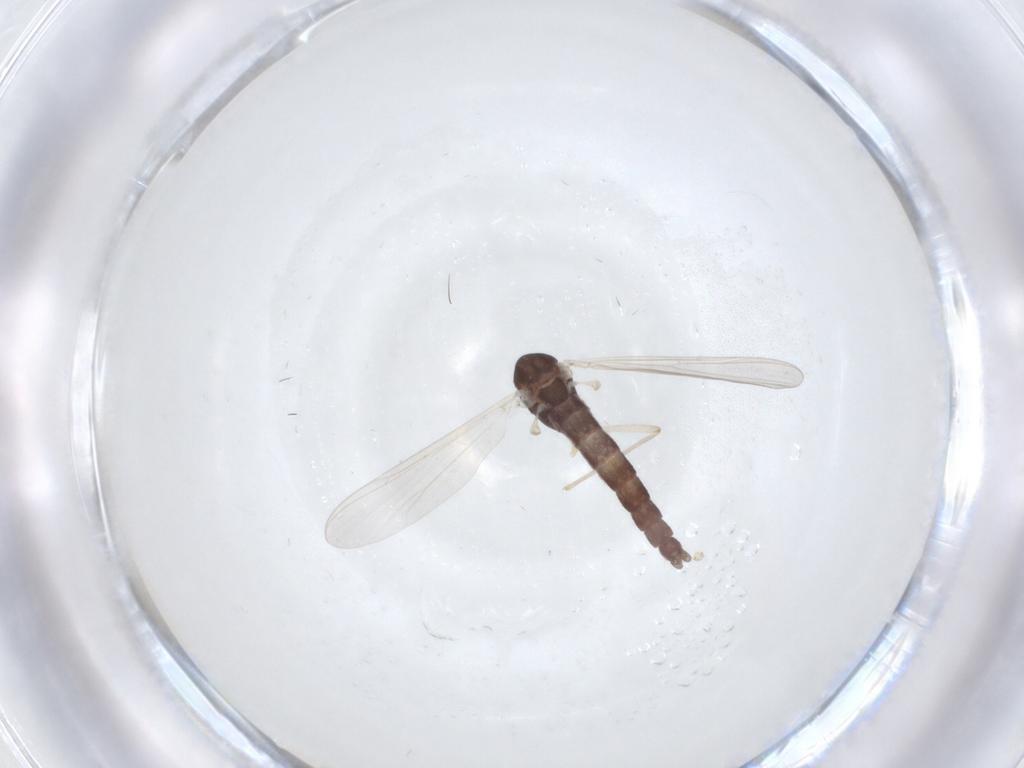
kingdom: Animalia
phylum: Arthropoda
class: Insecta
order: Diptera
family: Chironomidae
